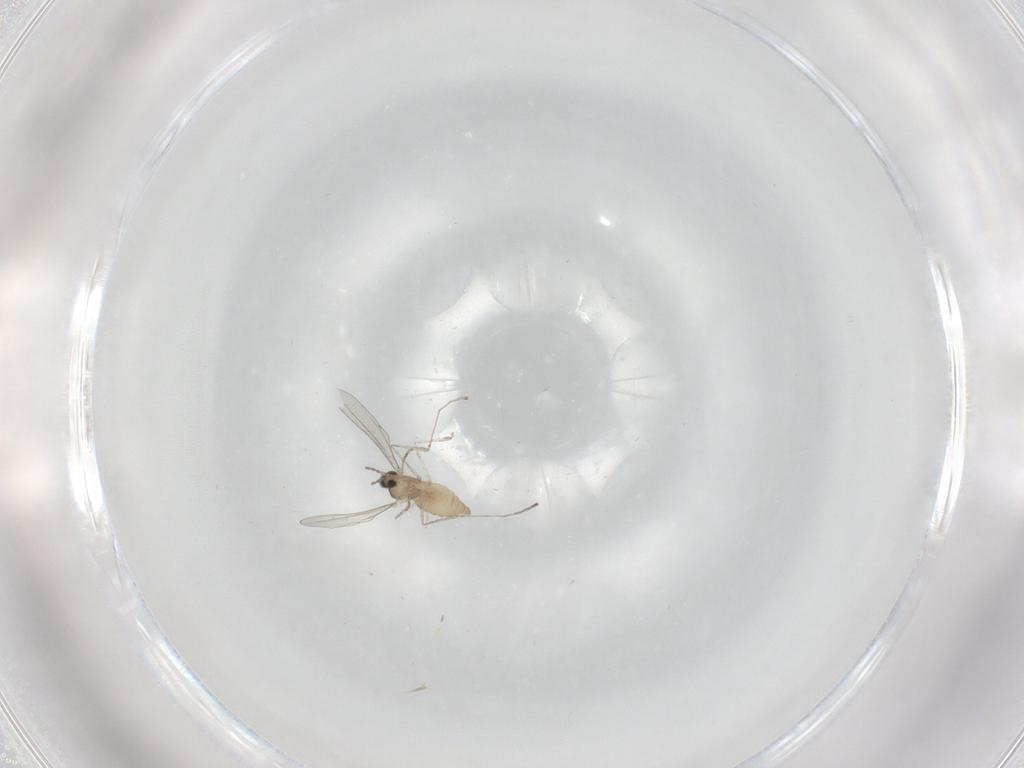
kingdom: Animalia
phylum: Arthropoda
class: Insecta
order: Diptera
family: Cecidomyiidae
